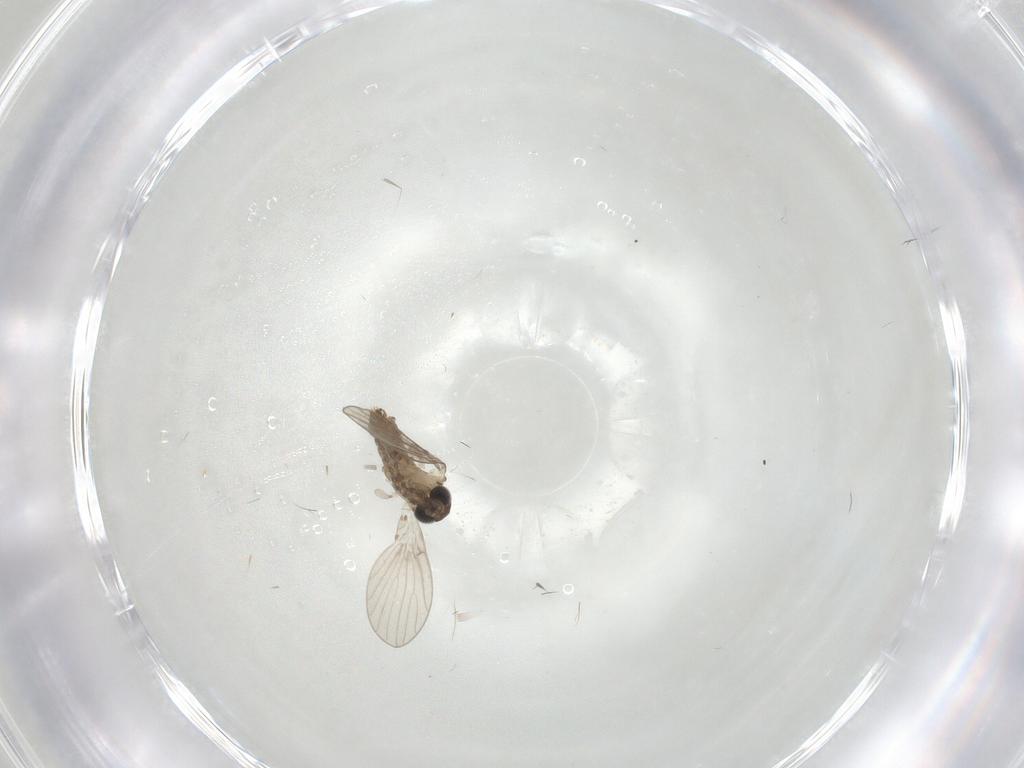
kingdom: Animalia
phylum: Arthropoda
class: Insecta
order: Diptera
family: Psychodidae
